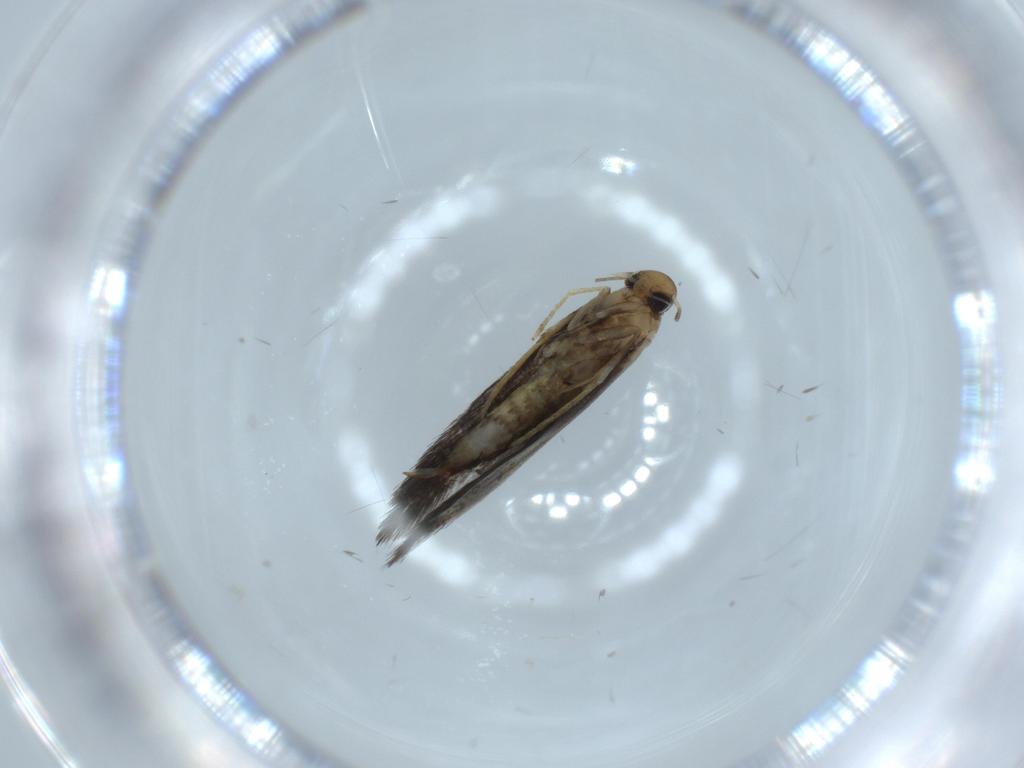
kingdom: Animalia
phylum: Arthropoda
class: Insecta
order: Lepidoptera
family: Heliozelidae
